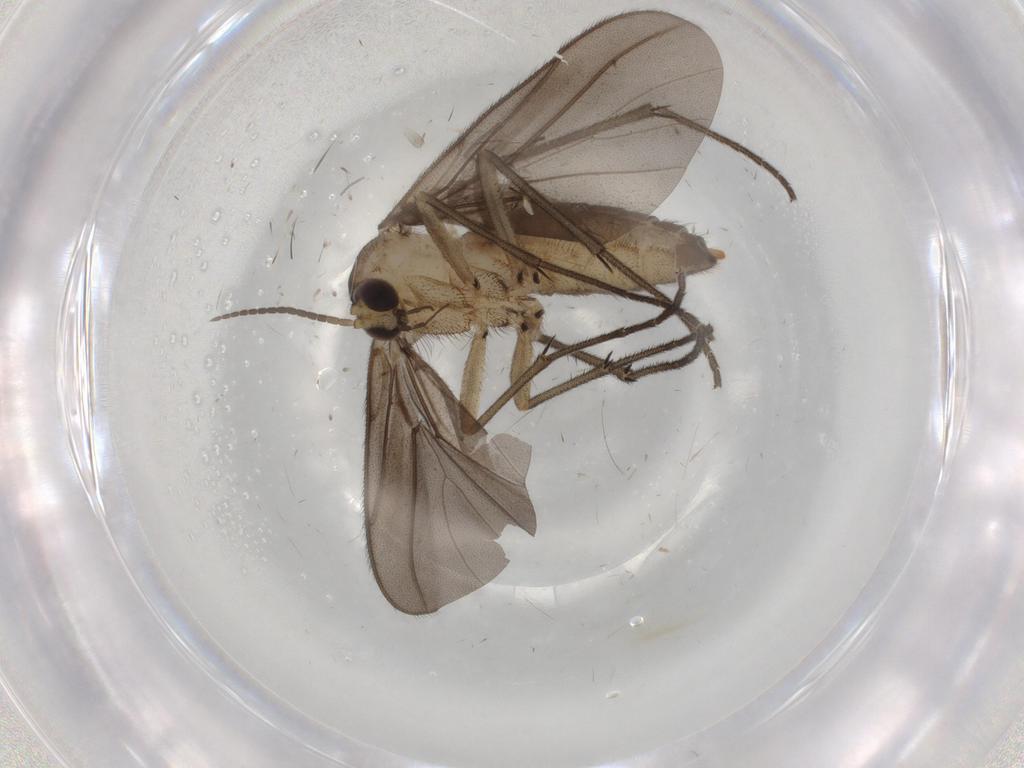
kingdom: Animalia
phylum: Arthropoda
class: Insecta
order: Diptera
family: Diadocidiidae
